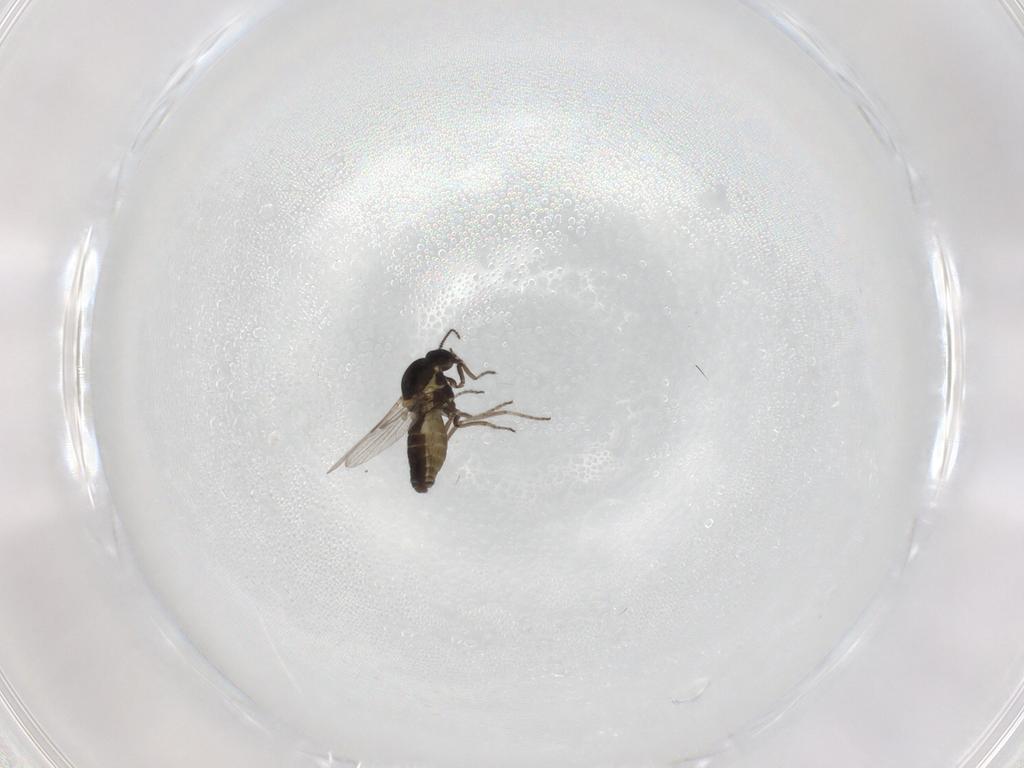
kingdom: Animalia
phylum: Arthropoda
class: Insecta
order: Diptera
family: Ceratopogonidae
